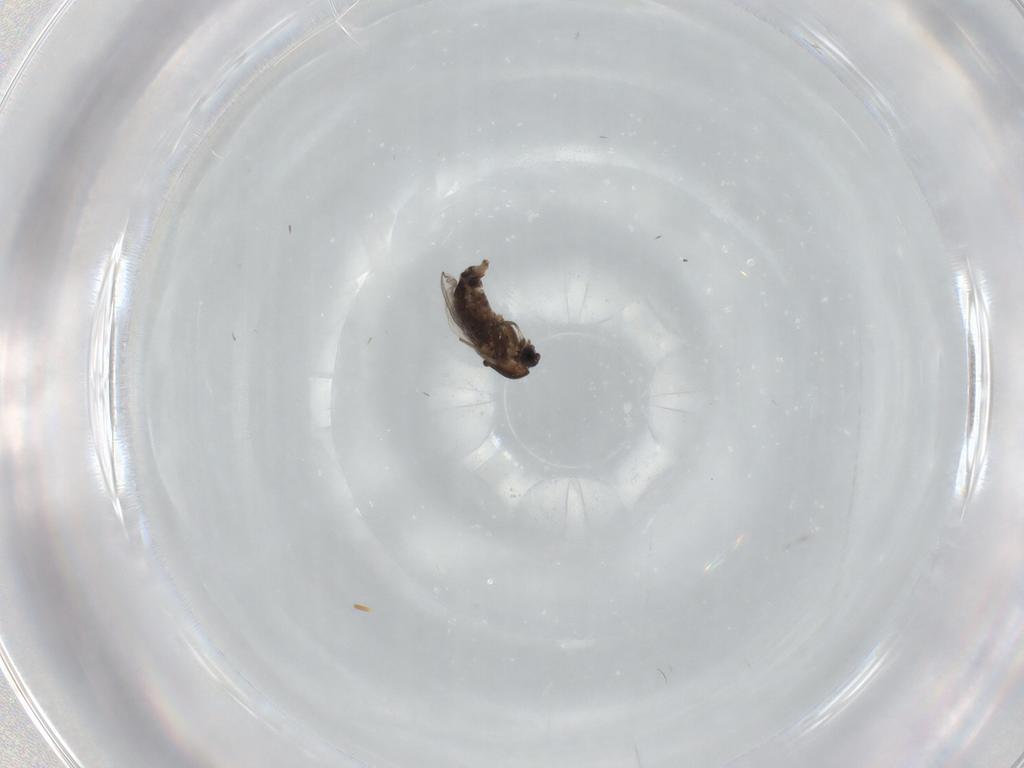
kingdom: Animalia
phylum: Arthropoda
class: Insecta
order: Diptera
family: Chironomidae
